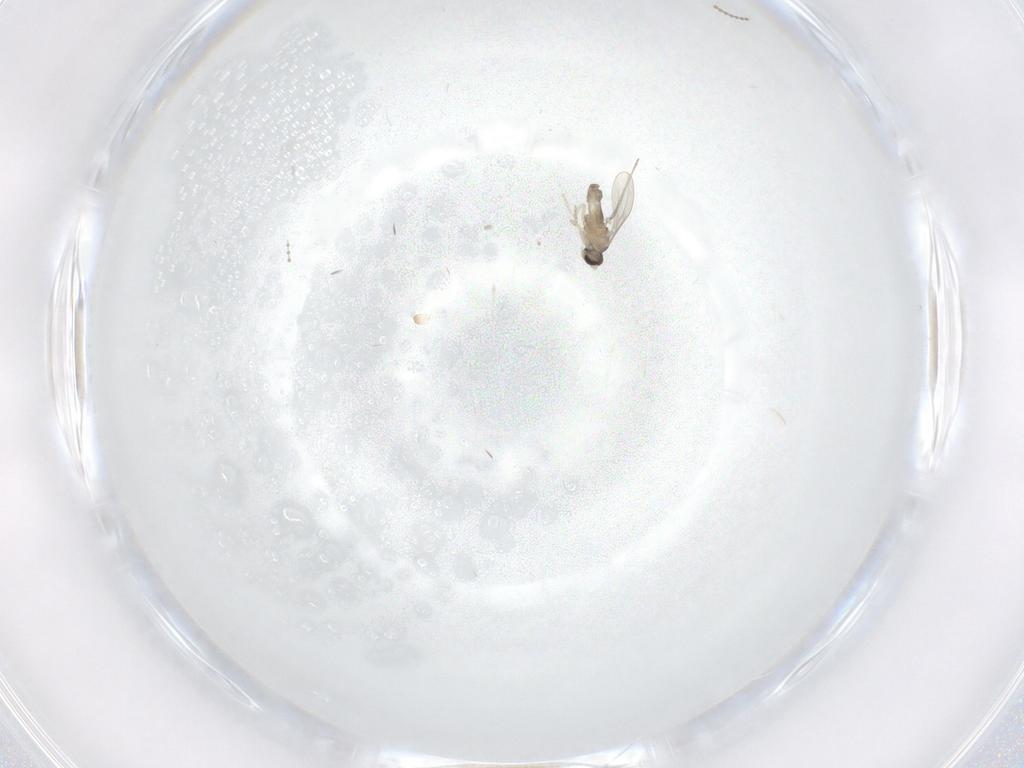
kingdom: Animalia
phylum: Arthropoda
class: Insecta
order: Diptera
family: Cecidomyiidae
